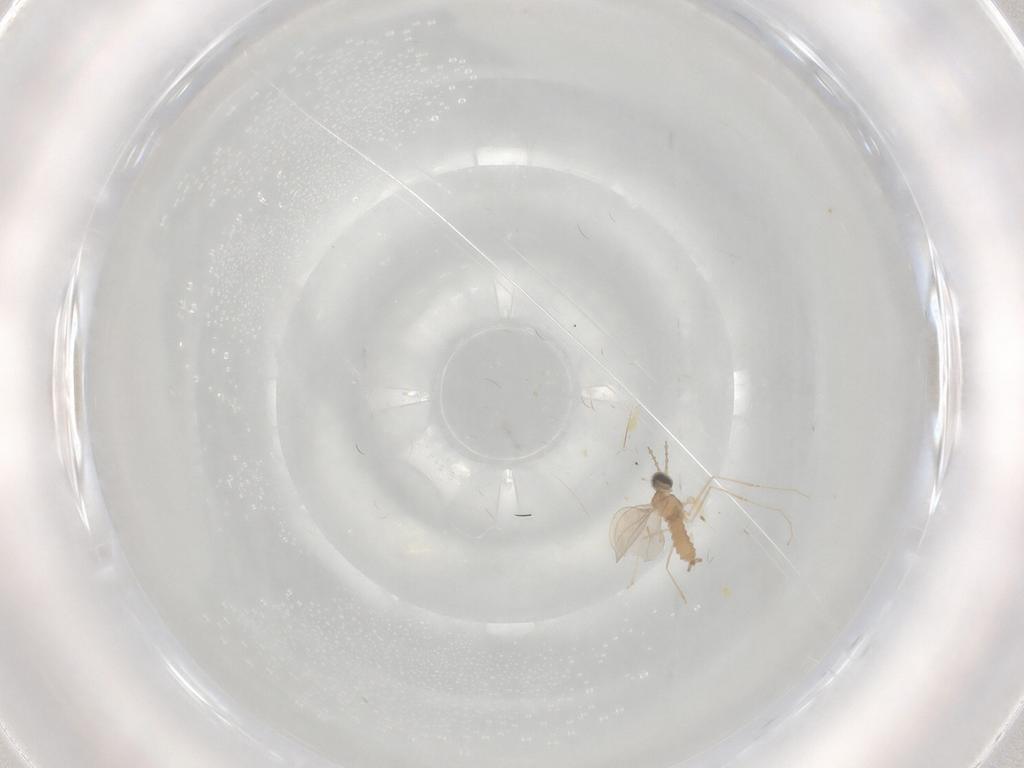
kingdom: Animalia
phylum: Arthropoda
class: Insecta
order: Diptera
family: Cecidomyiidae
